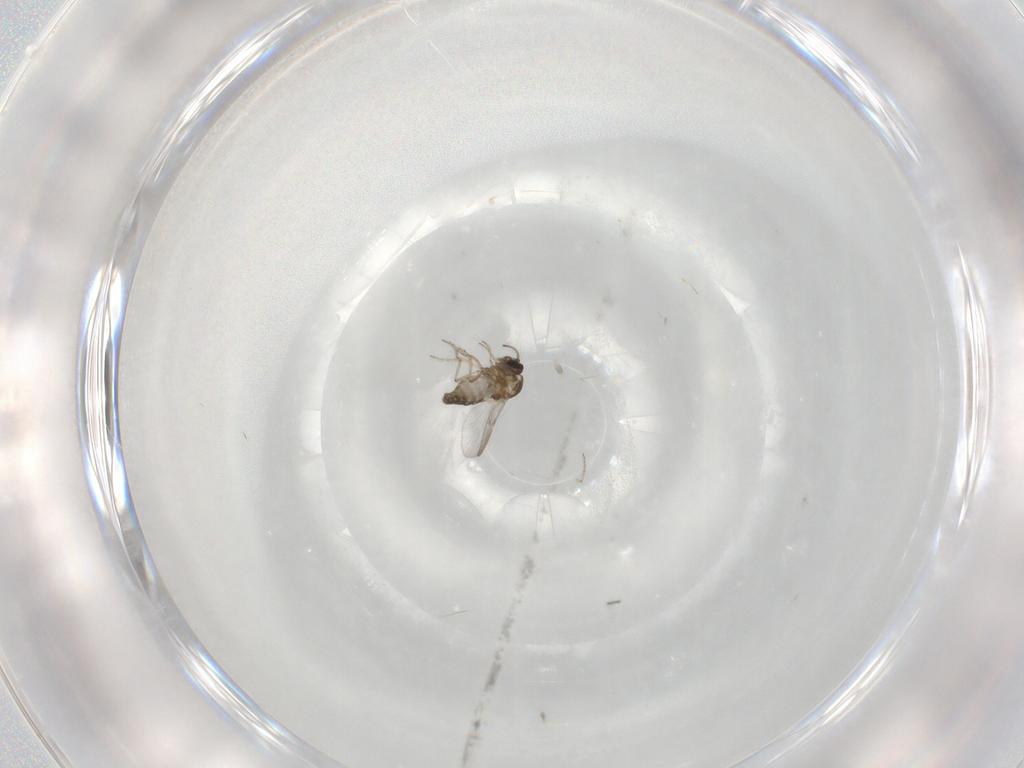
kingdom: Animalia
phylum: Arthropoda
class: Insecta
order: Diptera
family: Ceratopogonidae
